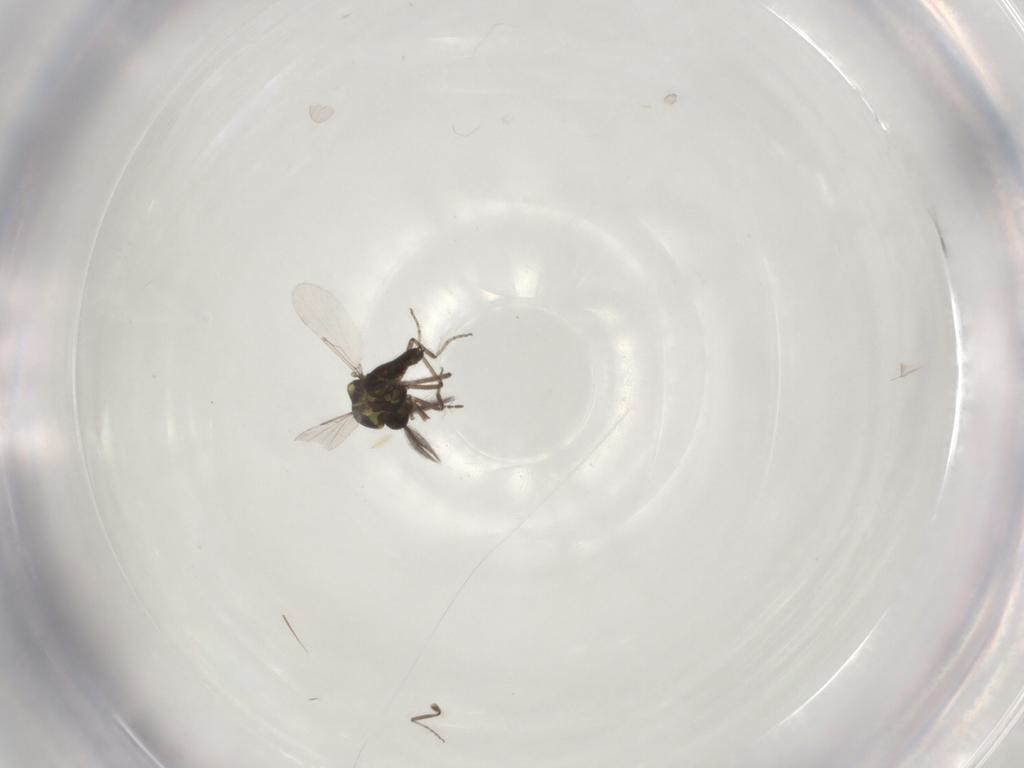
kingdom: Animalia
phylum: Arthropoda
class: Insecta
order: Diptera
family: Ceratopogonidae
